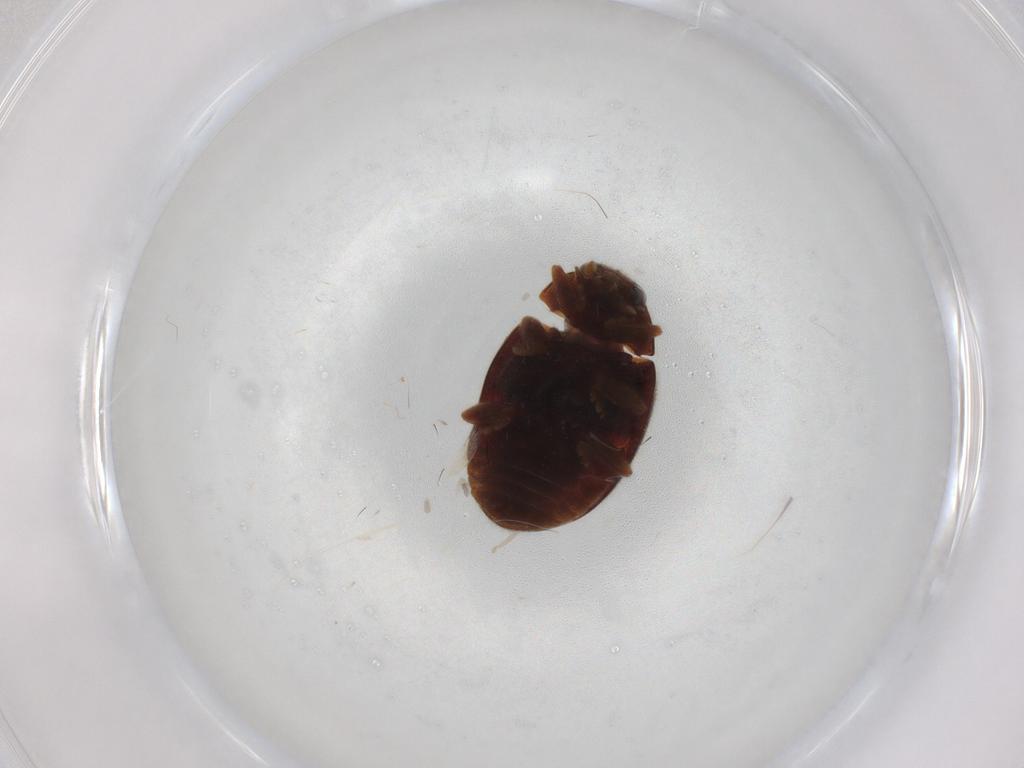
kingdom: Animalia
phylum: Arthropoda
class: Insecta
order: Coleoptera
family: Coccinellidae
